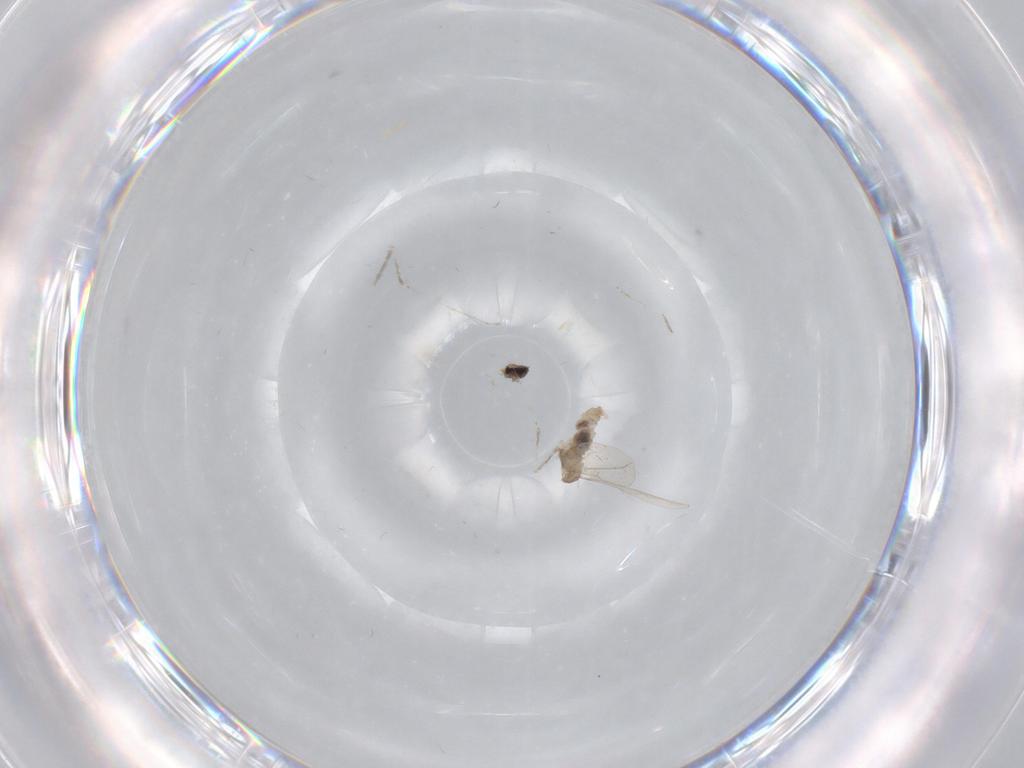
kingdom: Animalia
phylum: Arthropoda
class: Insecta
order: Diptera
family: Cecidomyiidae
